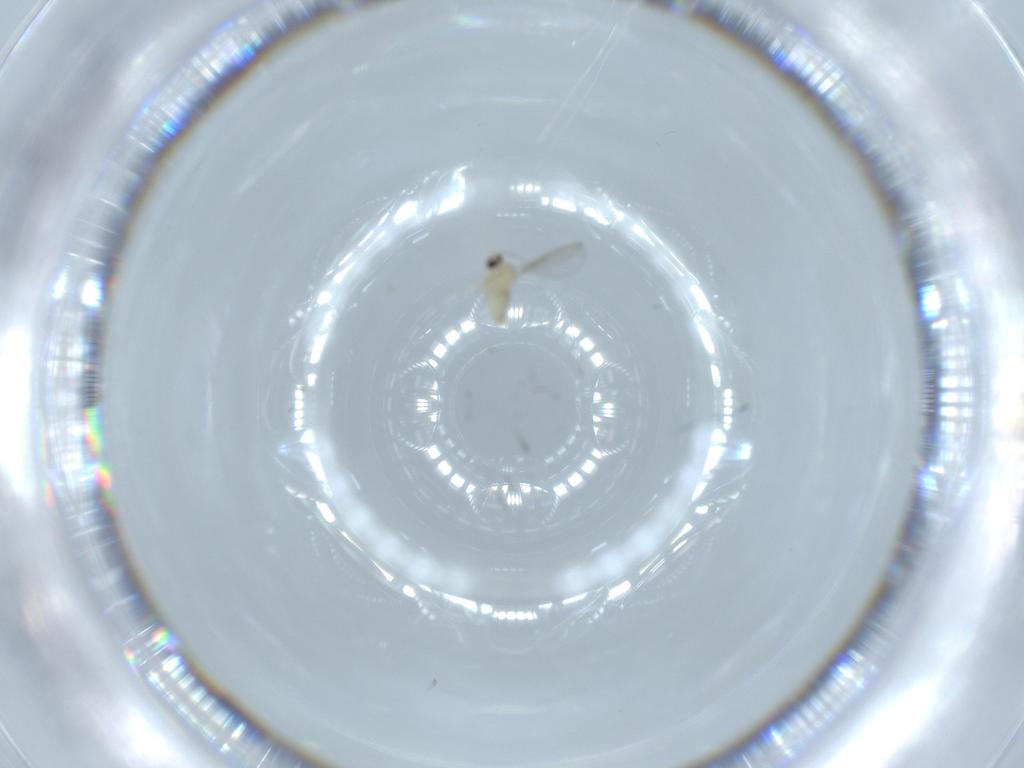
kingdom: Animalia
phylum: Arthropoda
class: Insecta
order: Diptera
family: Cecidomyiidae
